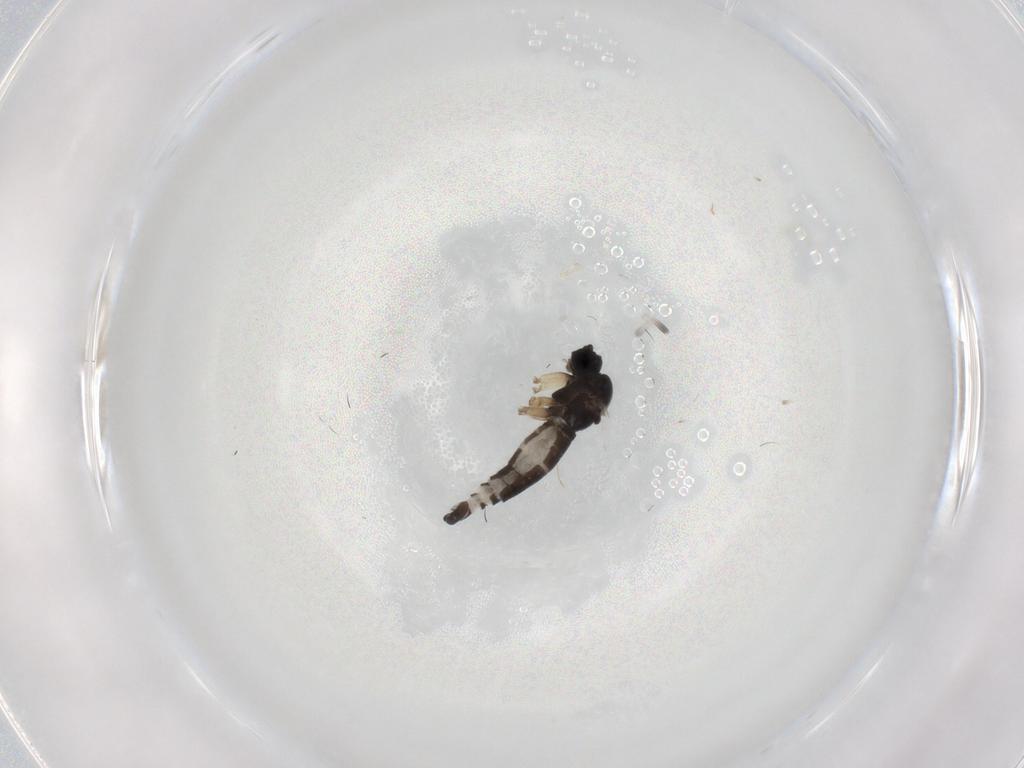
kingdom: Animalia
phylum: Arthropoda
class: Insecta
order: Diptera
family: Sciaridae
